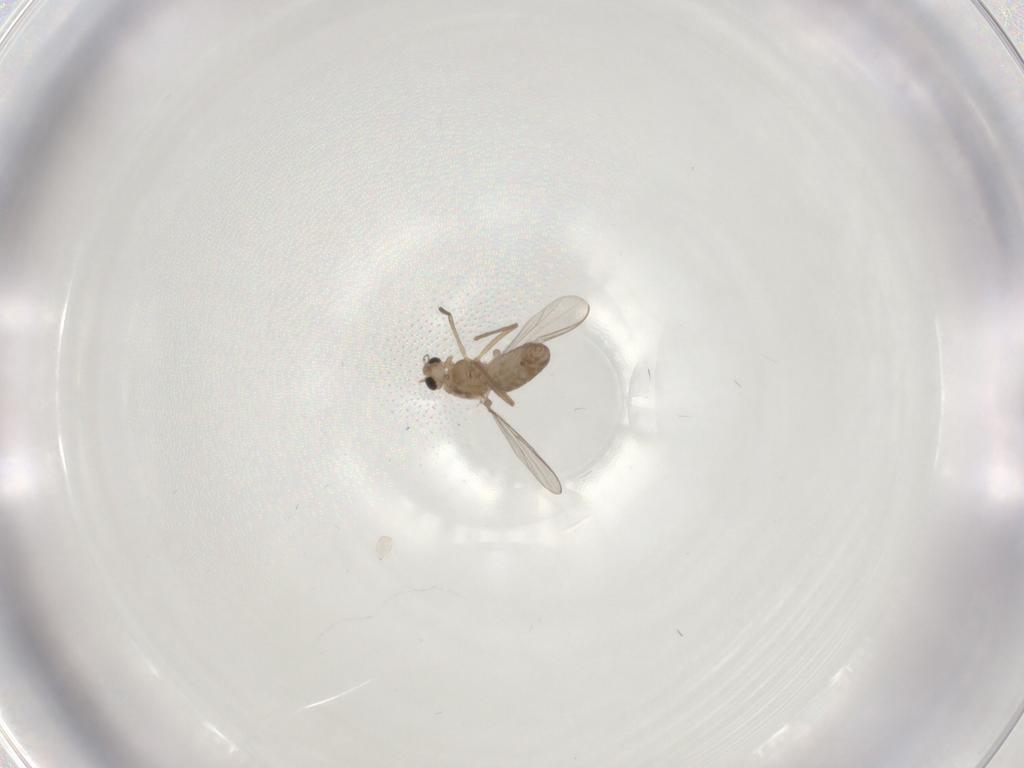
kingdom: Animalia
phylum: Arthropoda
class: Insecta
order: Diptera
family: Chironomidae
